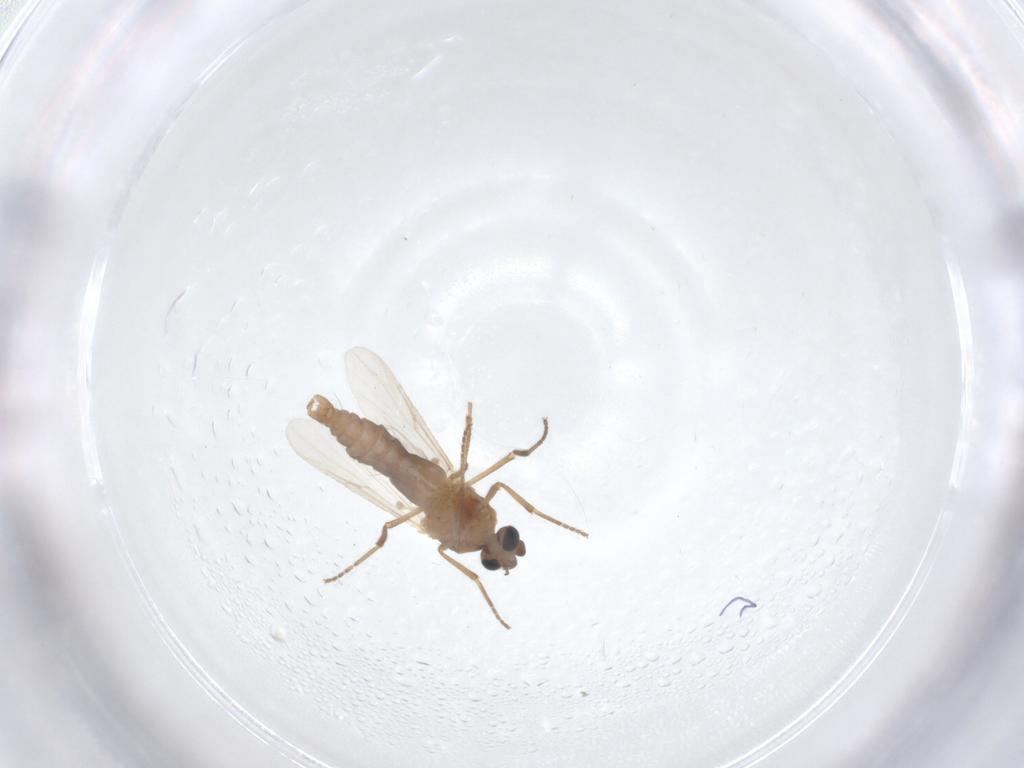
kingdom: Animalia
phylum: Arthropoda
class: Insecta
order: Diptera
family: Ceratopogonidae
